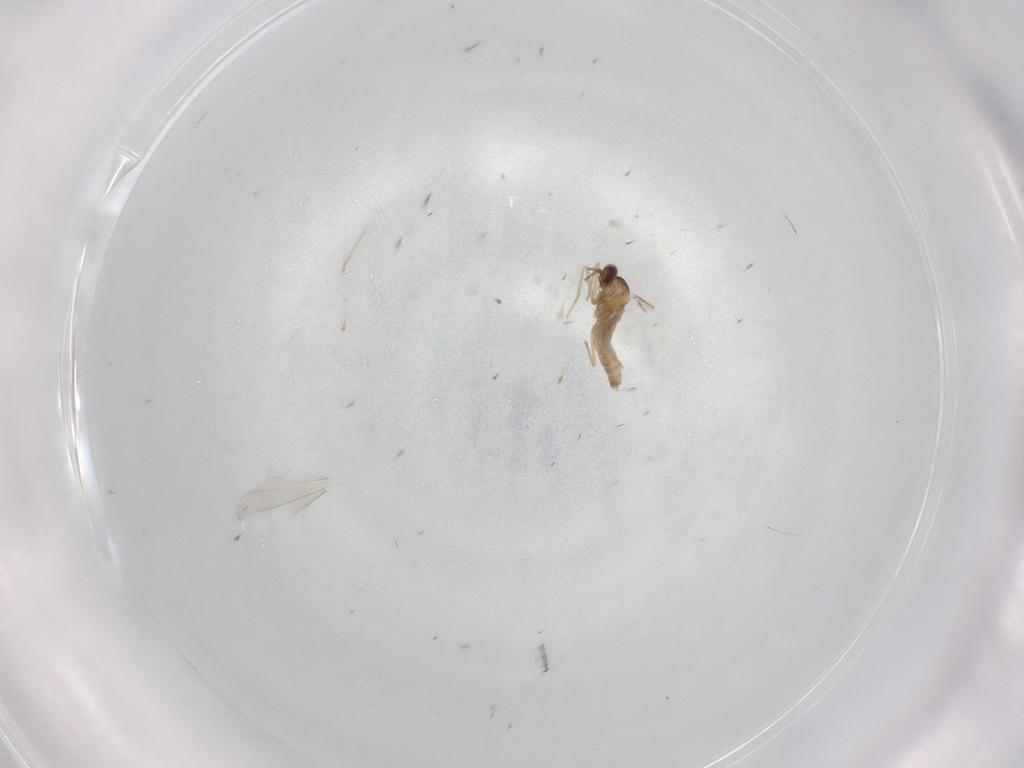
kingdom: Animalia
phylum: Arthropoda
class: Insecta
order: Diptera
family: Cecidomyiidae
